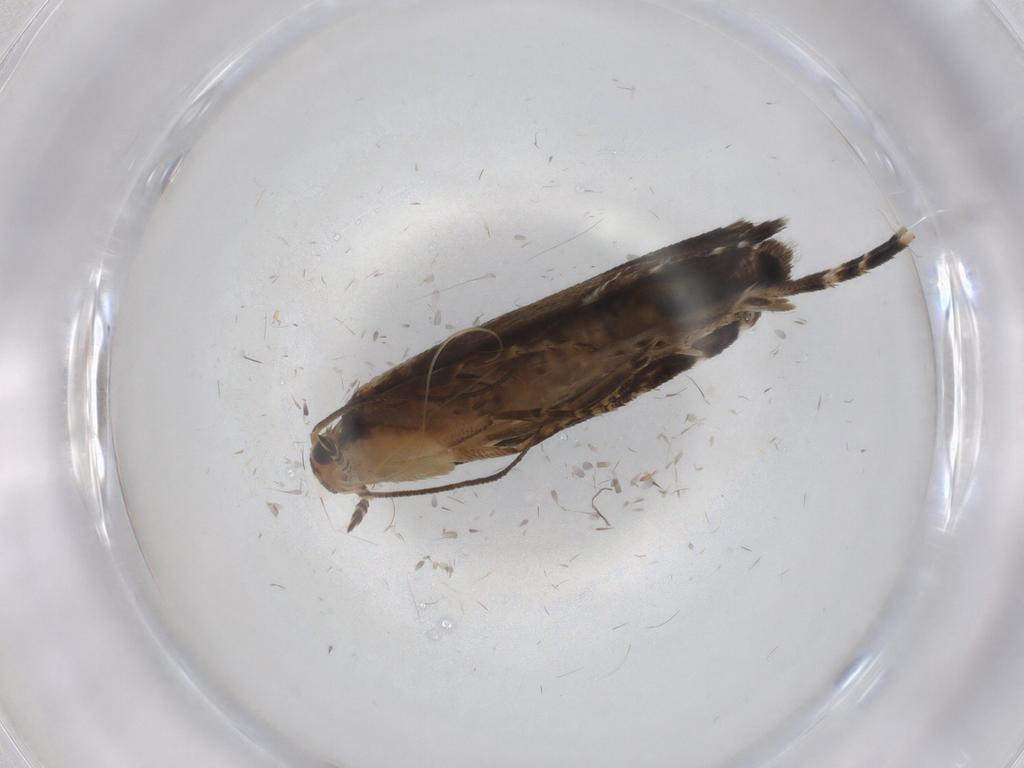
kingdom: Animalia
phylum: Arthropoda
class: Insecta
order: Lepidoptera
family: Glyphipterigidae
